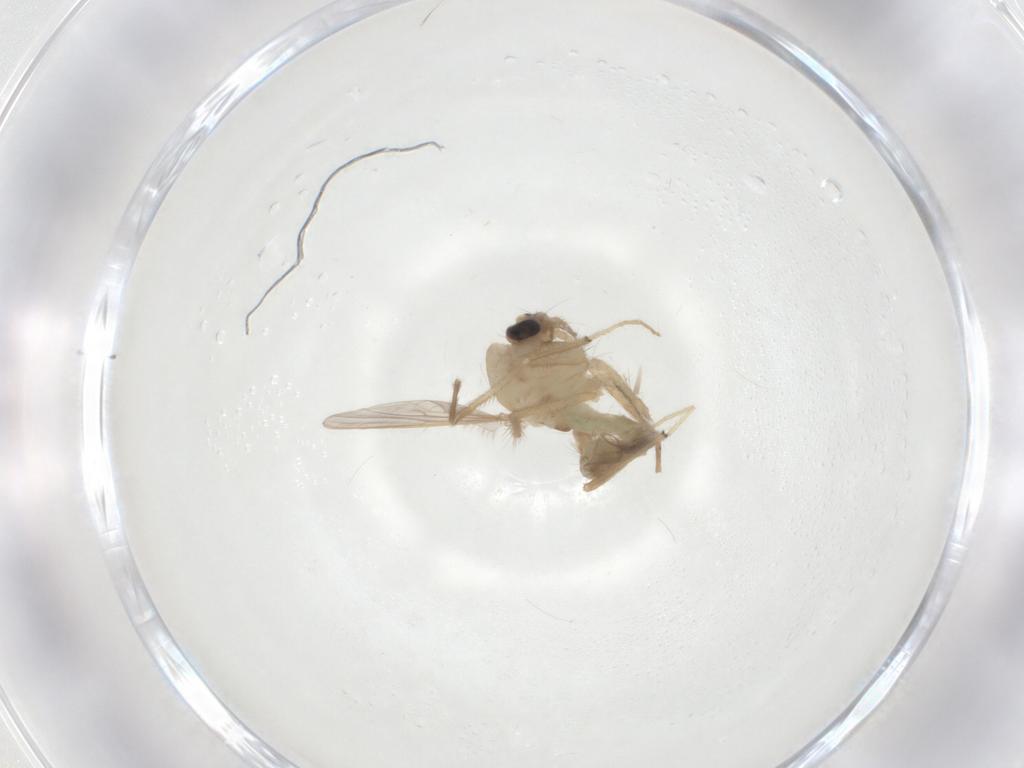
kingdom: Animalia
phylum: Arthropoda
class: Insecta
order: Diptera
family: Chironomidae
